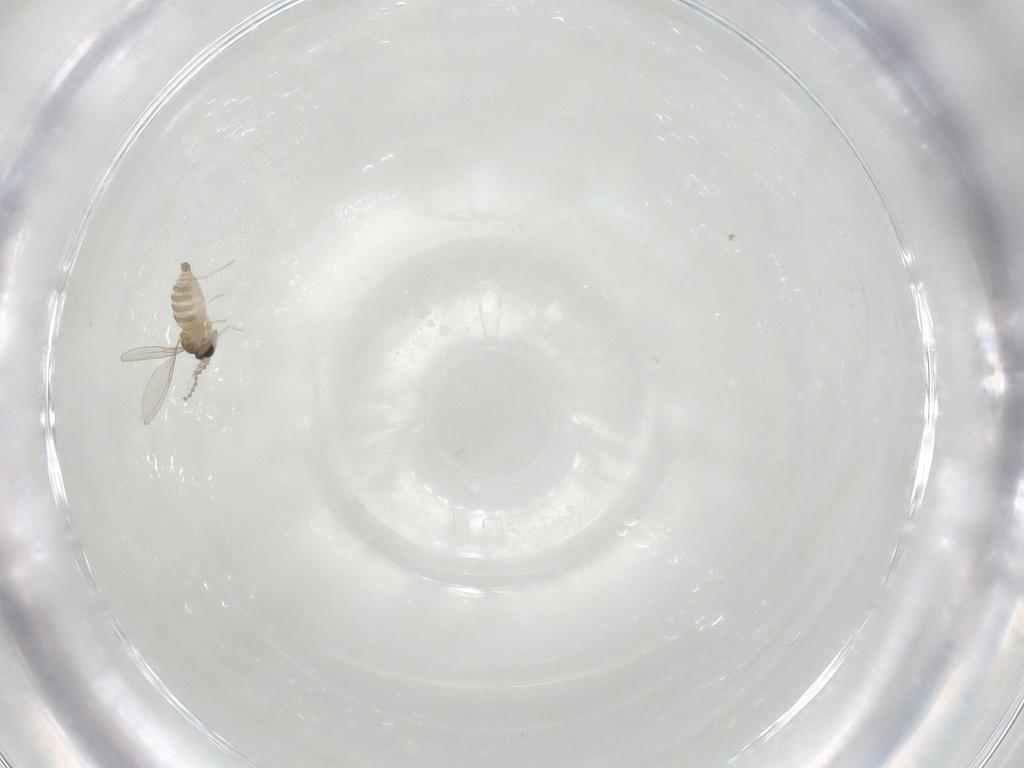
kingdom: Animalia
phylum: Arthropoda
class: Insecta
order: Diptera
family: Cecidomyiidae
